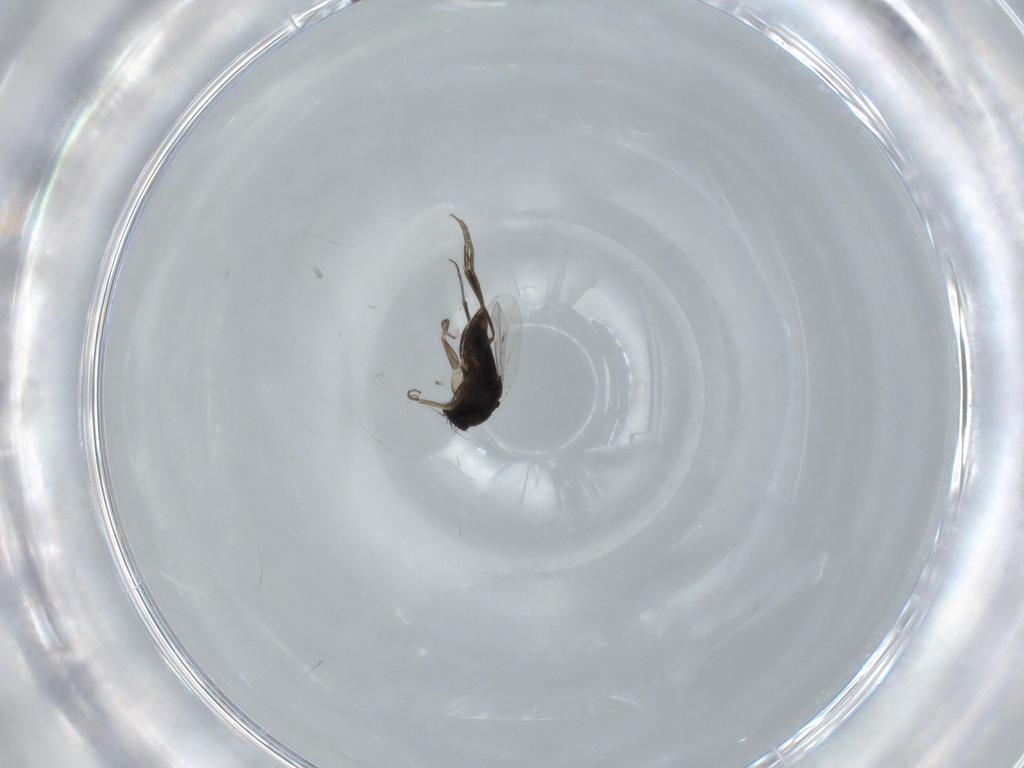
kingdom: Animalia
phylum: Arthropoda
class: Insecta
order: Diptera
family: Phoridae
